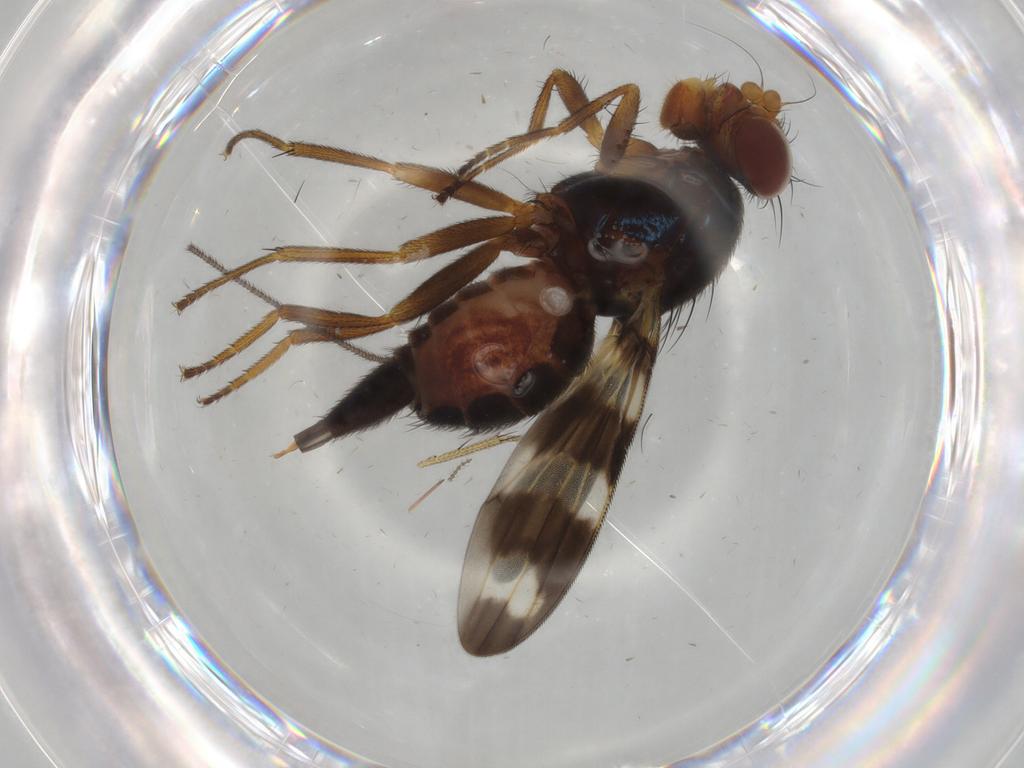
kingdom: Animalia
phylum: Arthropoda
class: Insecta
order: Diptera
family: Ulidiidae
